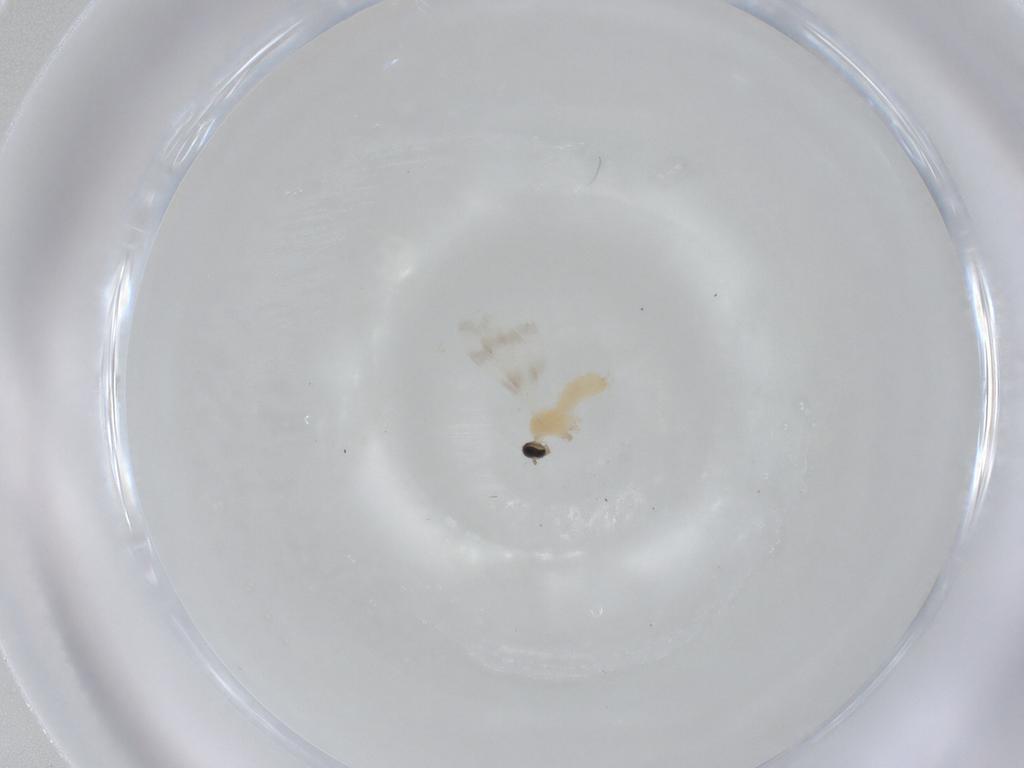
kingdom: Animalia
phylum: Arthropoda
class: Insecta
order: Diptera
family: Cecidomyiidae
